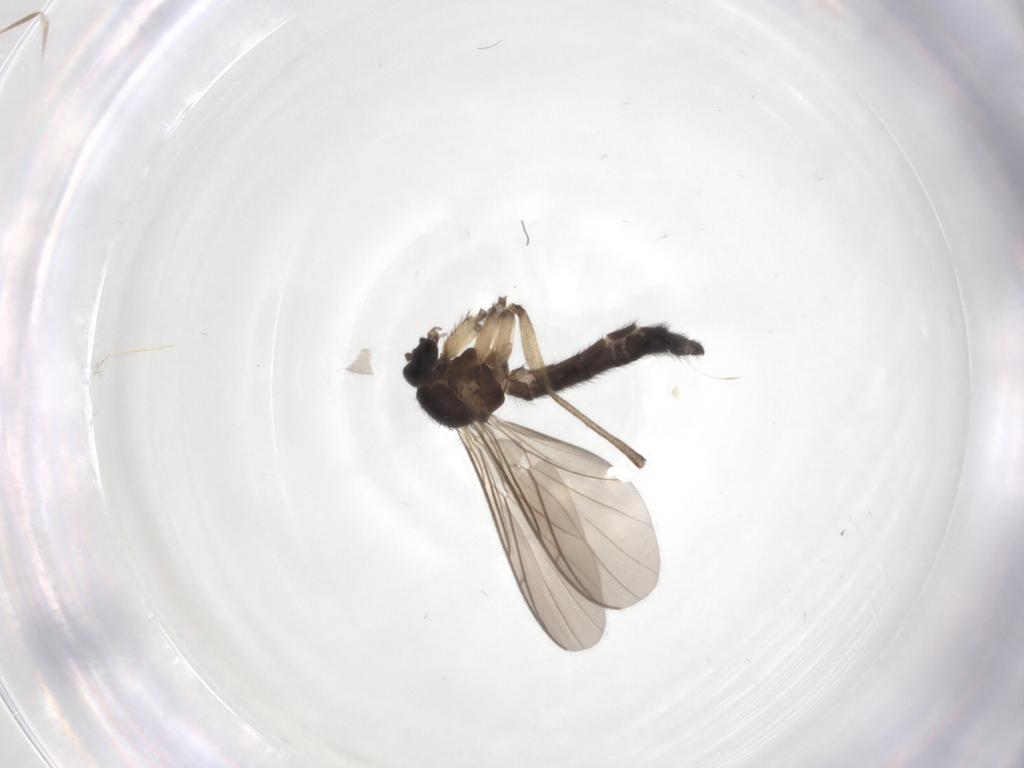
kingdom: Animalia
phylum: Arthropoda
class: Insecta
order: Diptera
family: Keroplatidae
